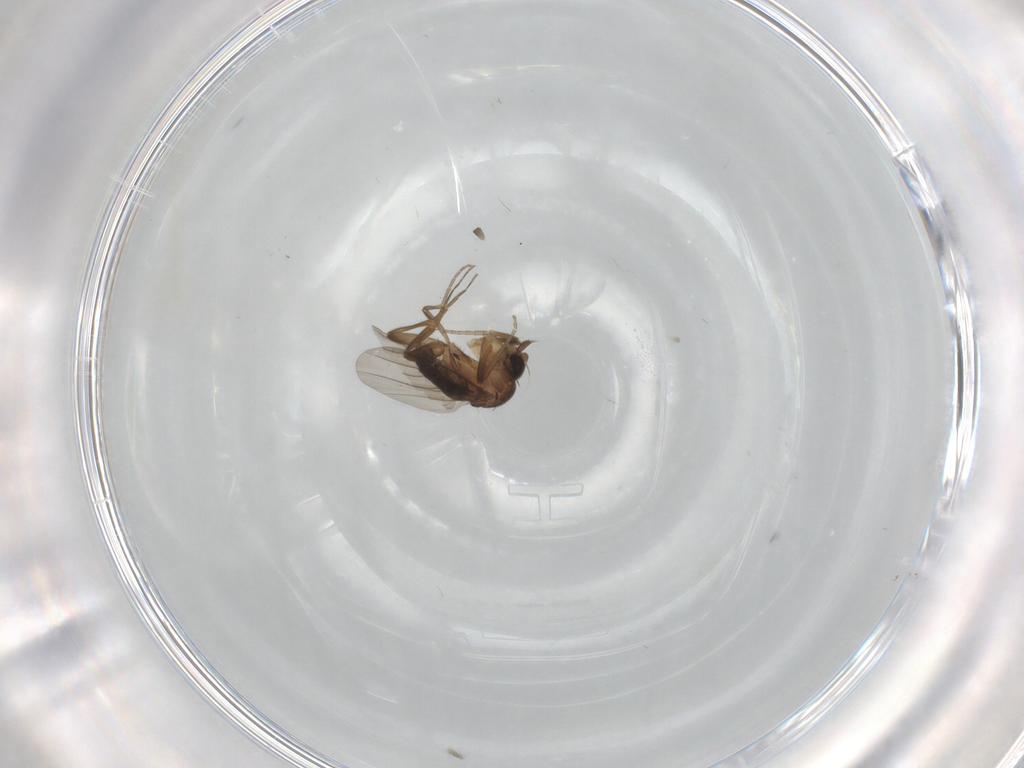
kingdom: Animalia
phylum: Arthropoda
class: Insecta
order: Diptera
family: Phoridae
